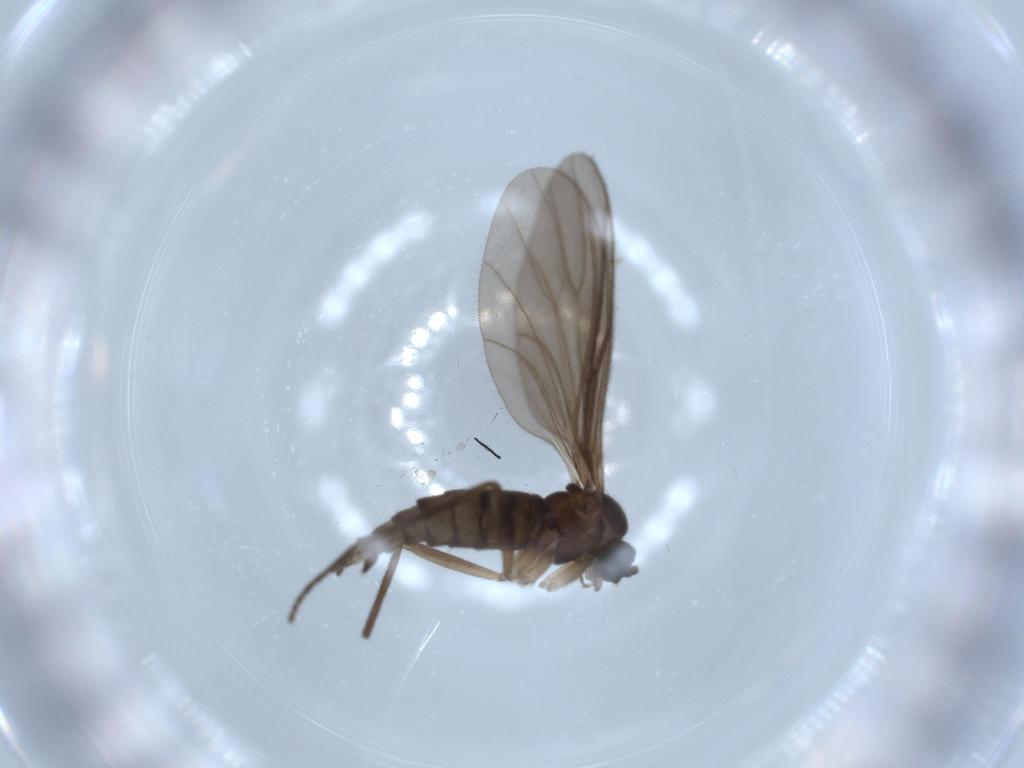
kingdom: Animalia
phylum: Arthropoda
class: Insecta
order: Diptera
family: Sciaridae
